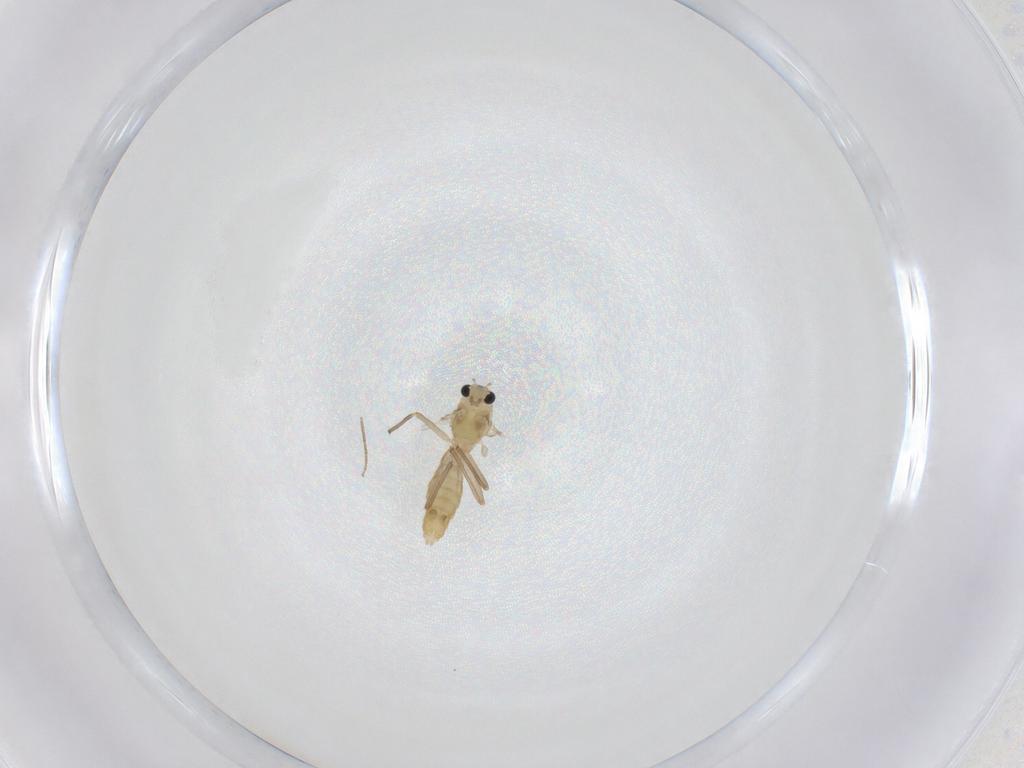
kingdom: Animalia
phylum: Arthropoda
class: Insecta
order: Diptera
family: Chironomidae
